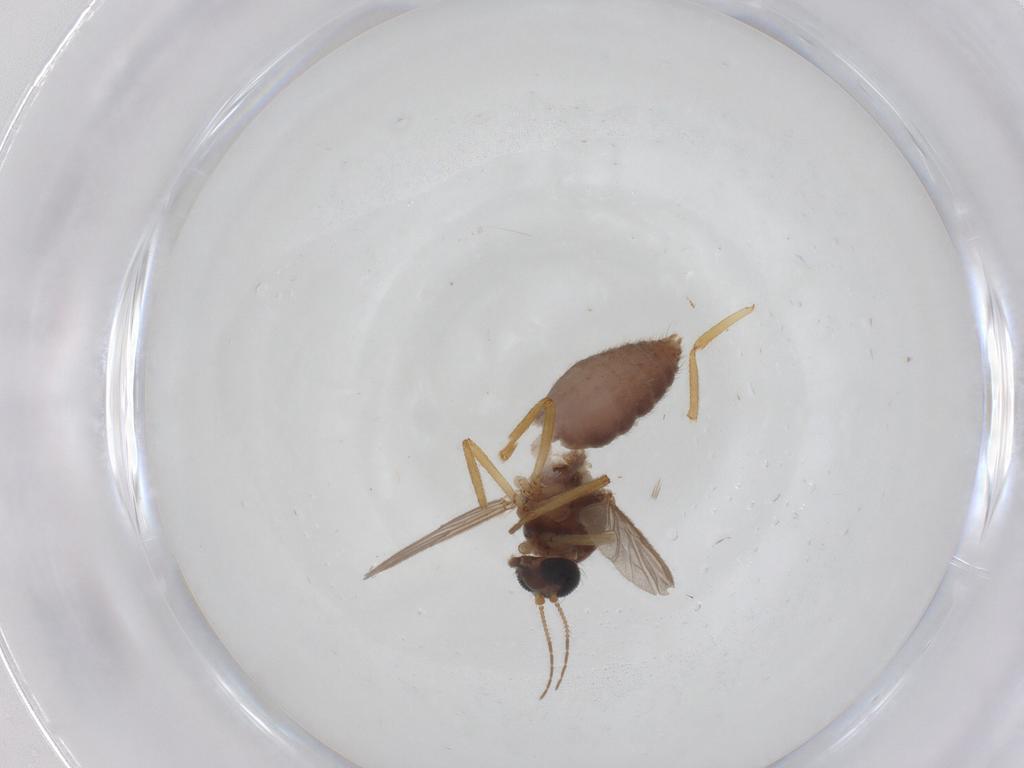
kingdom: Animalia
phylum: Arthropoda
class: Insecta
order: Diptera
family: Ceratopogonidae
